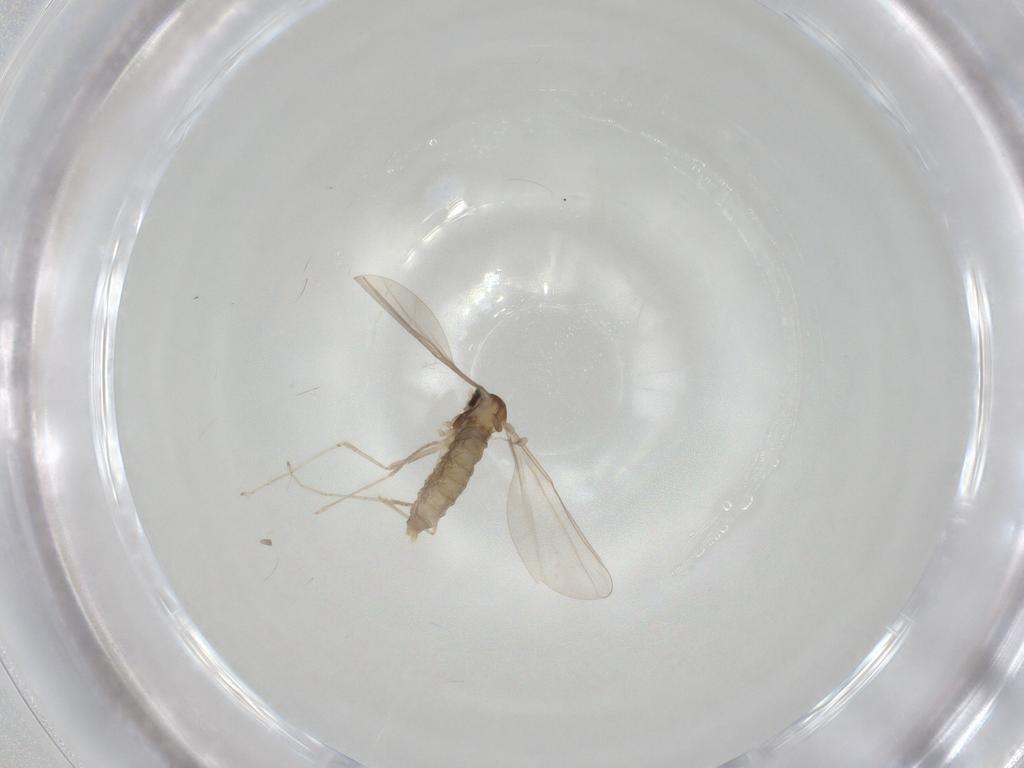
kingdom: Animalia
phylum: Arthropoda
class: Insecta
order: Diptera
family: Cecidomyiidae
